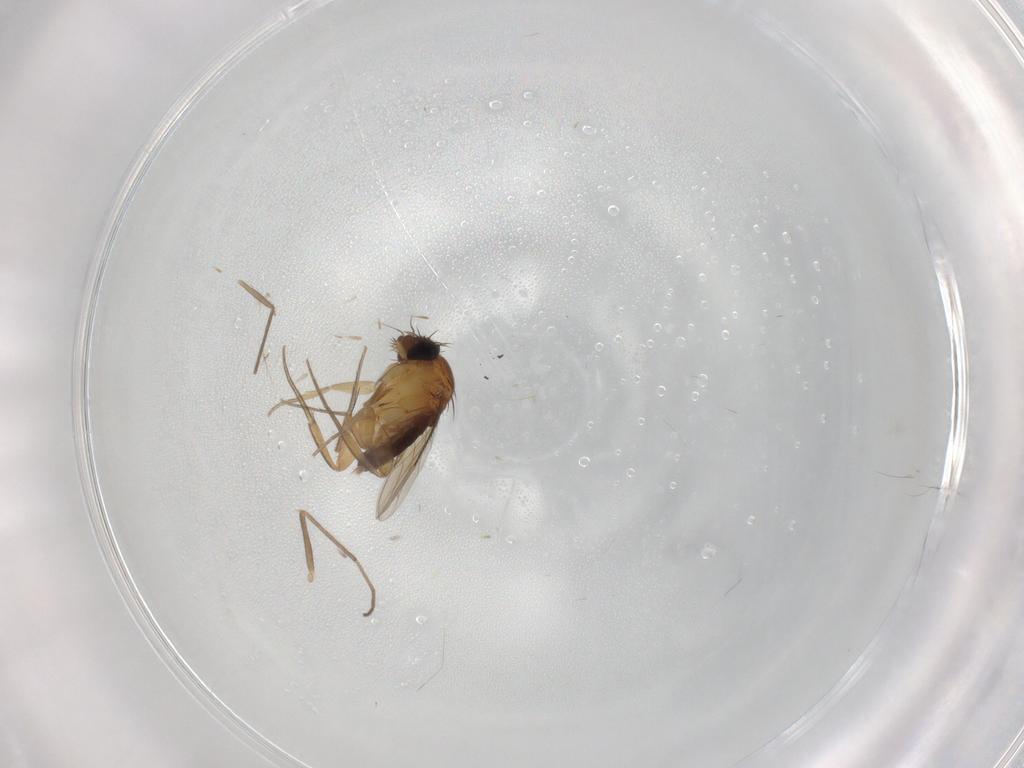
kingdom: Animalia
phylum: Arthropoda
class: Insecta
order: Diptera
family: Chironomidae
